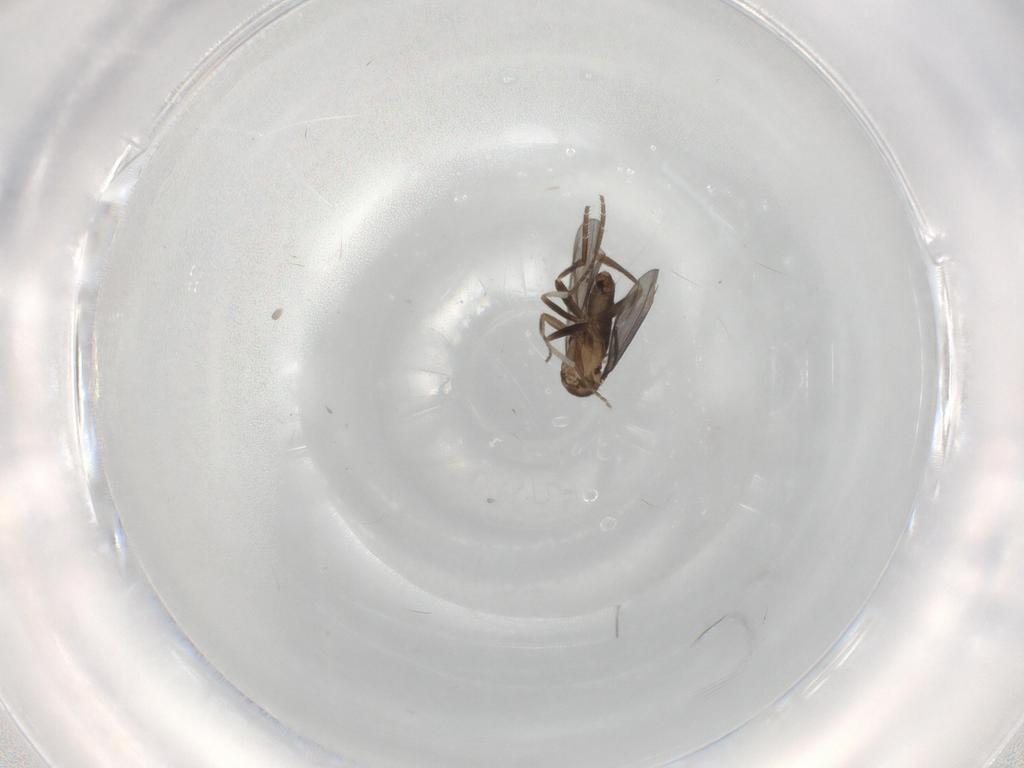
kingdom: Animalia
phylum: Arthropoda
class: Insecta
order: Diptera
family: Phoridae
